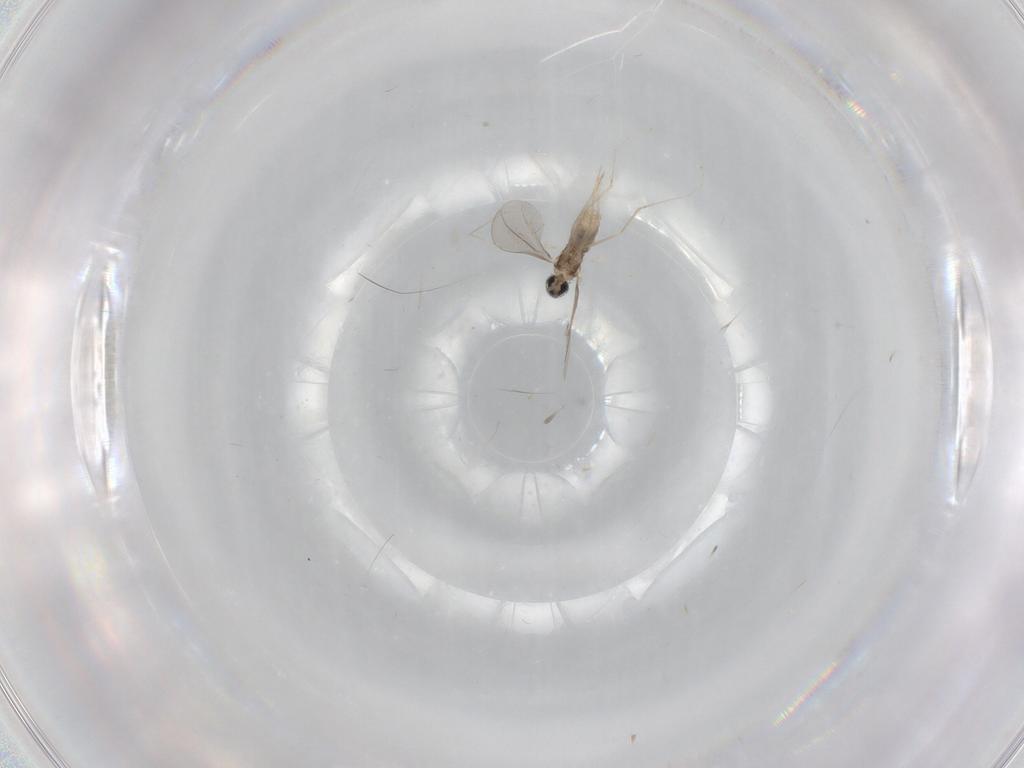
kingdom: Animalia
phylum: Arthropoda
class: Insecta
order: Diptera
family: Cecidomyiidae
